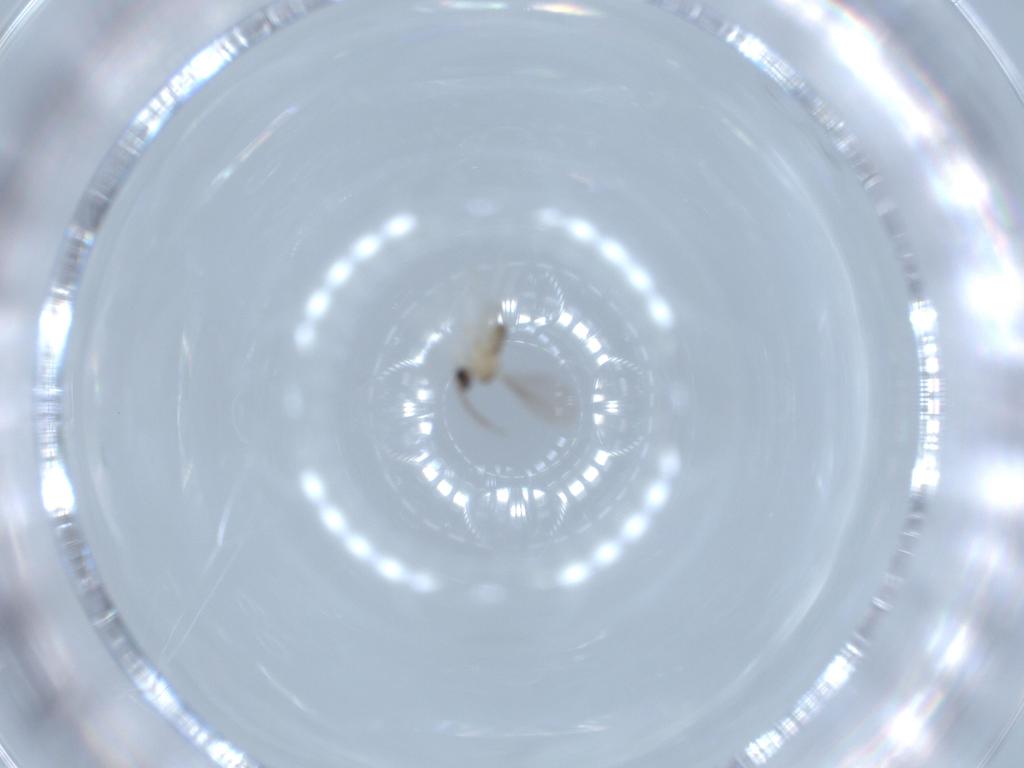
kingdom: Animalia
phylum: Arthropoda
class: Insecta
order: Diptera
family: Cecidomyiidae
